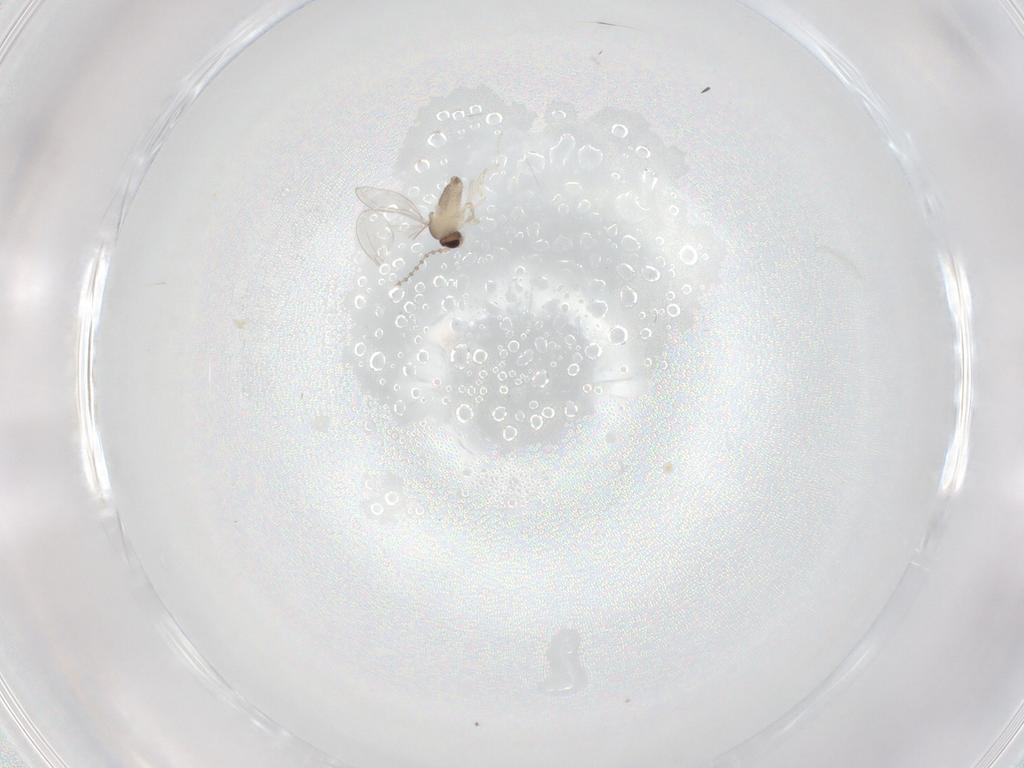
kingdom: Animalia
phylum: Arthropoda
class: Insecta
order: Diptera
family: Cecidomyiidae
